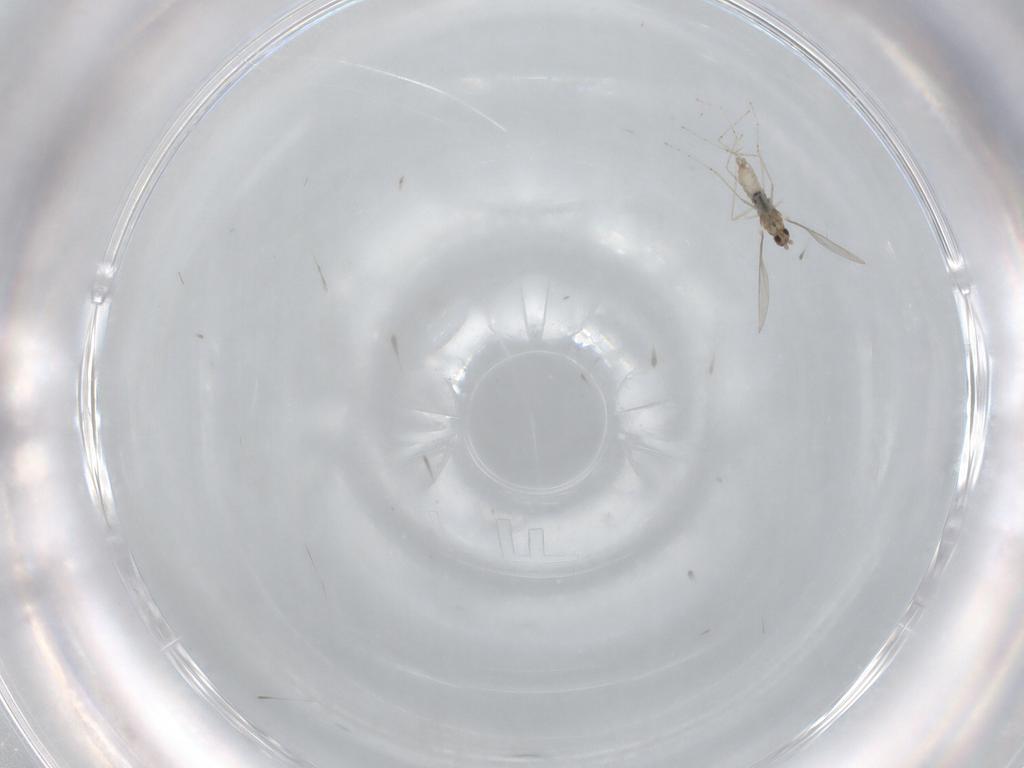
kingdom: Animalia
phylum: Arthropoda
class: Insecta
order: Diptera
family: Cecidomyiidae
